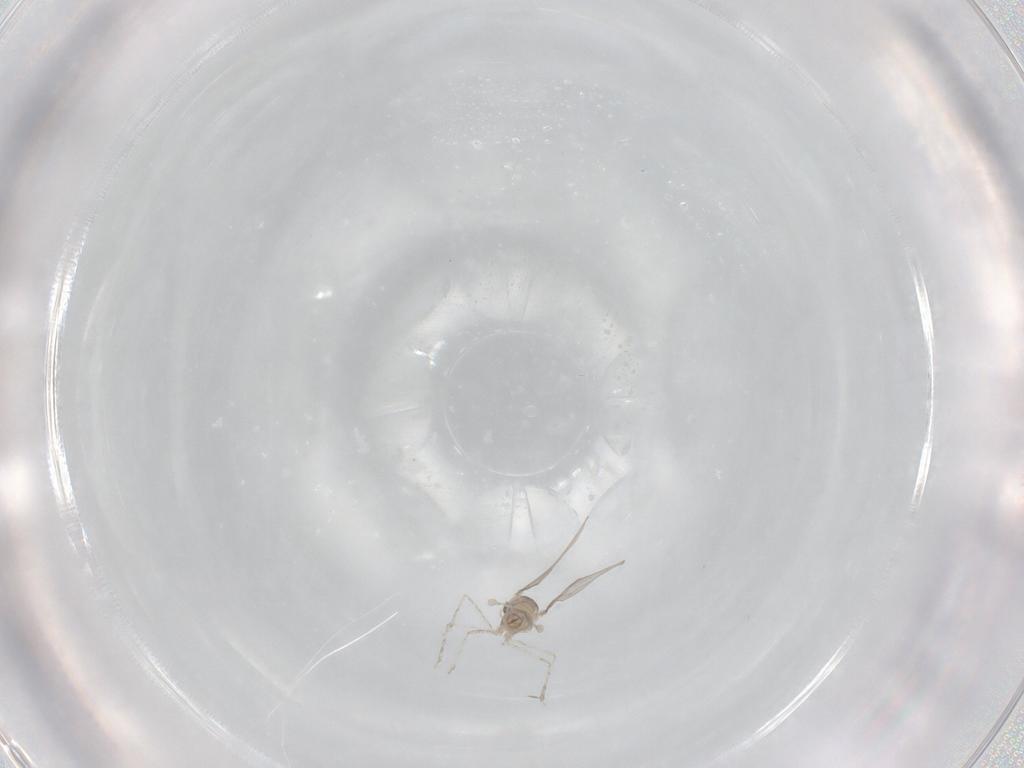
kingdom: Animalia
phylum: Arthropoda
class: Insecta
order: Diptera
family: Cecidomyiidae
